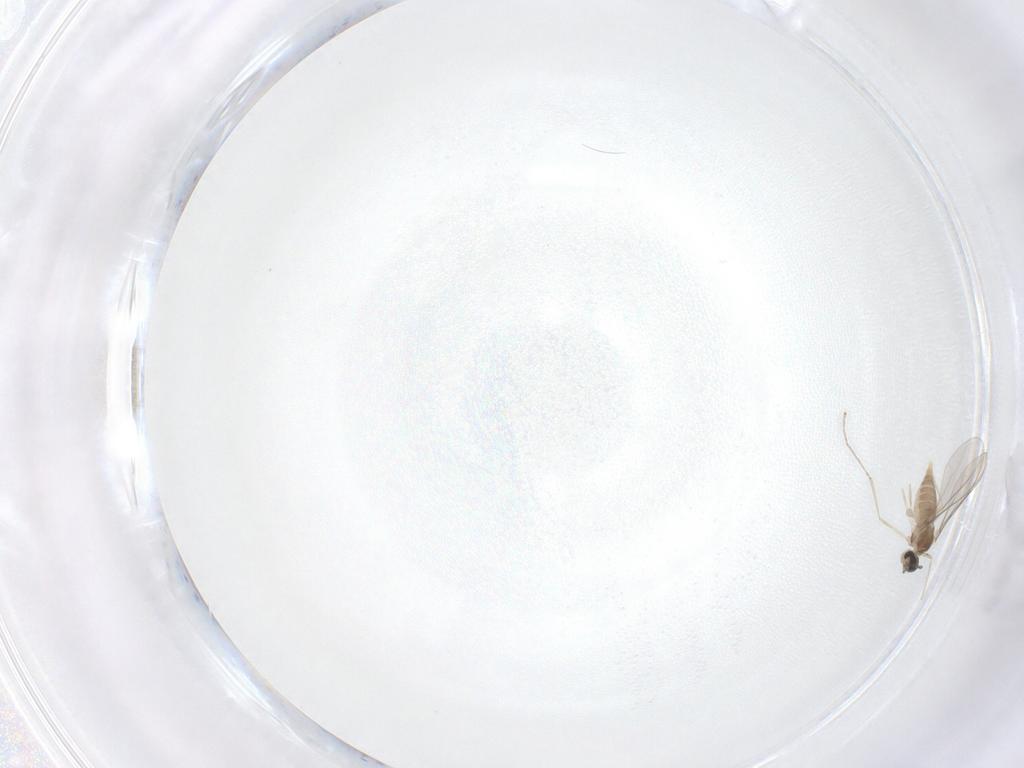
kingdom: Animalia
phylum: Arthropoda
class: Insecta
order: Diptera
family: Cecidomyiidae
